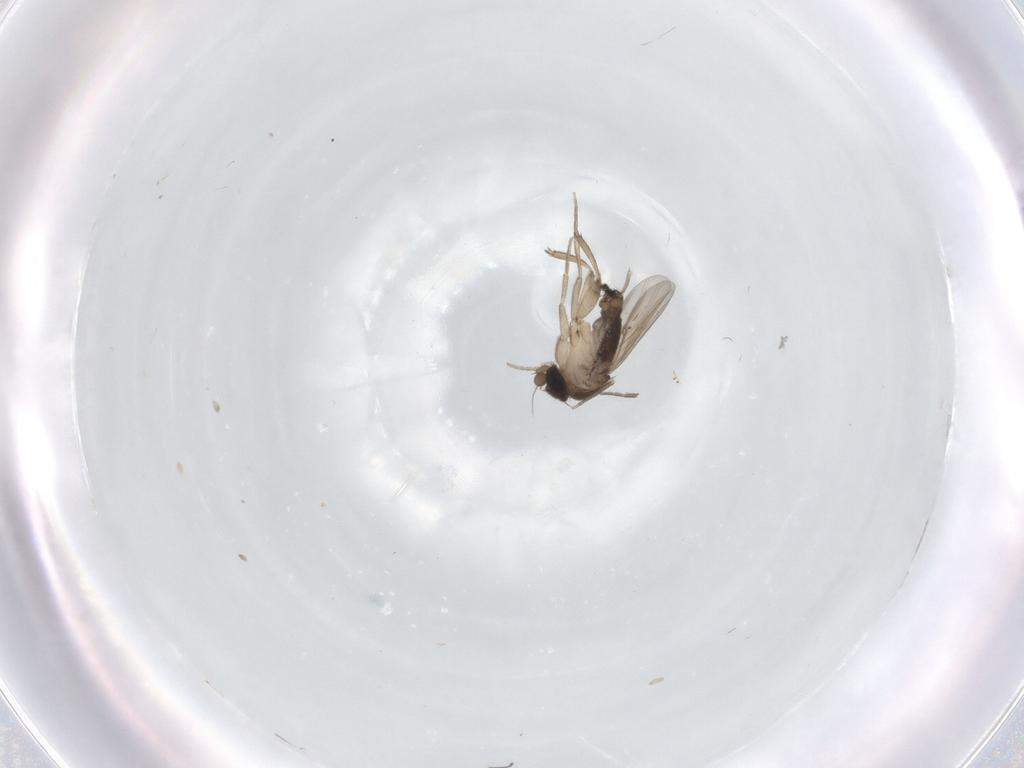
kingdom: Animalia
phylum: Arthropoda
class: Insecta
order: Diptera
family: Phoridae
